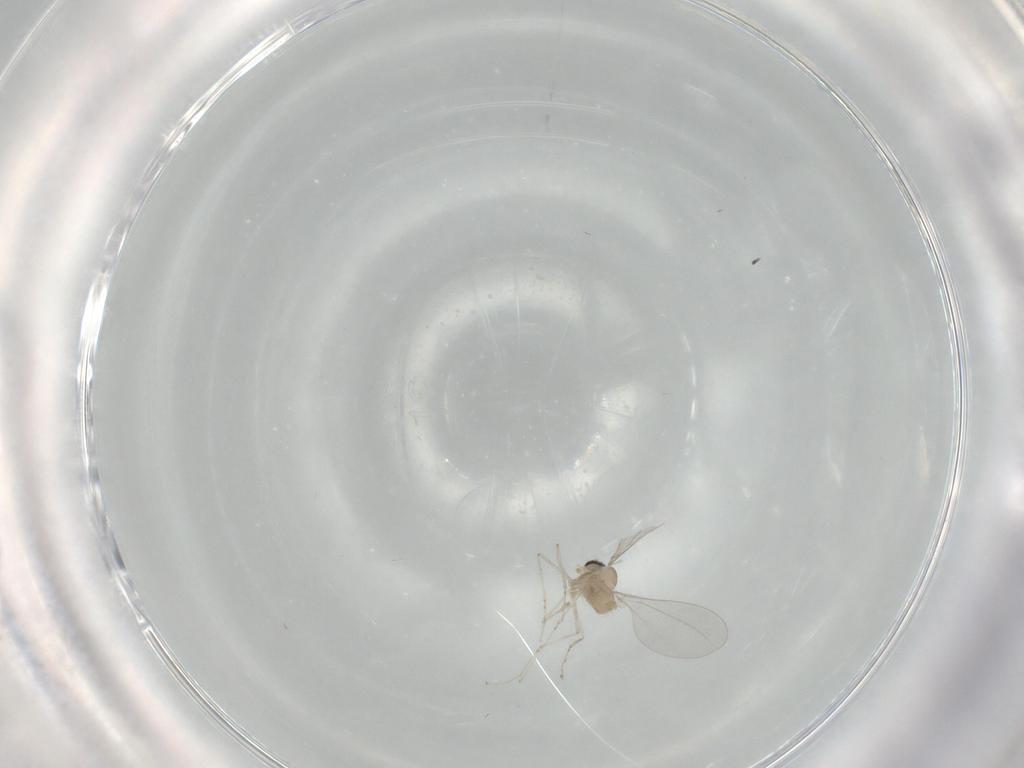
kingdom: Animalia
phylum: Arthropoda
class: Insecta
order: Diptera
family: Cecidomyiidae
